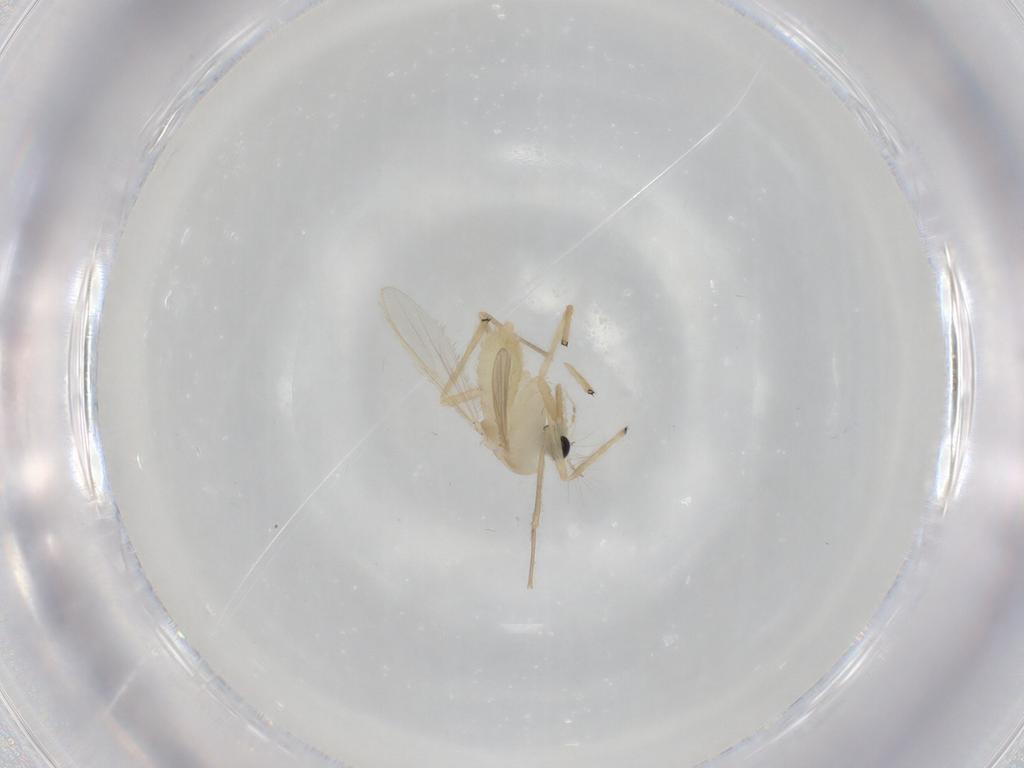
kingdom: Animalia
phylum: Arthropoda
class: Insecta
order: Diptera
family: Chironomidae
